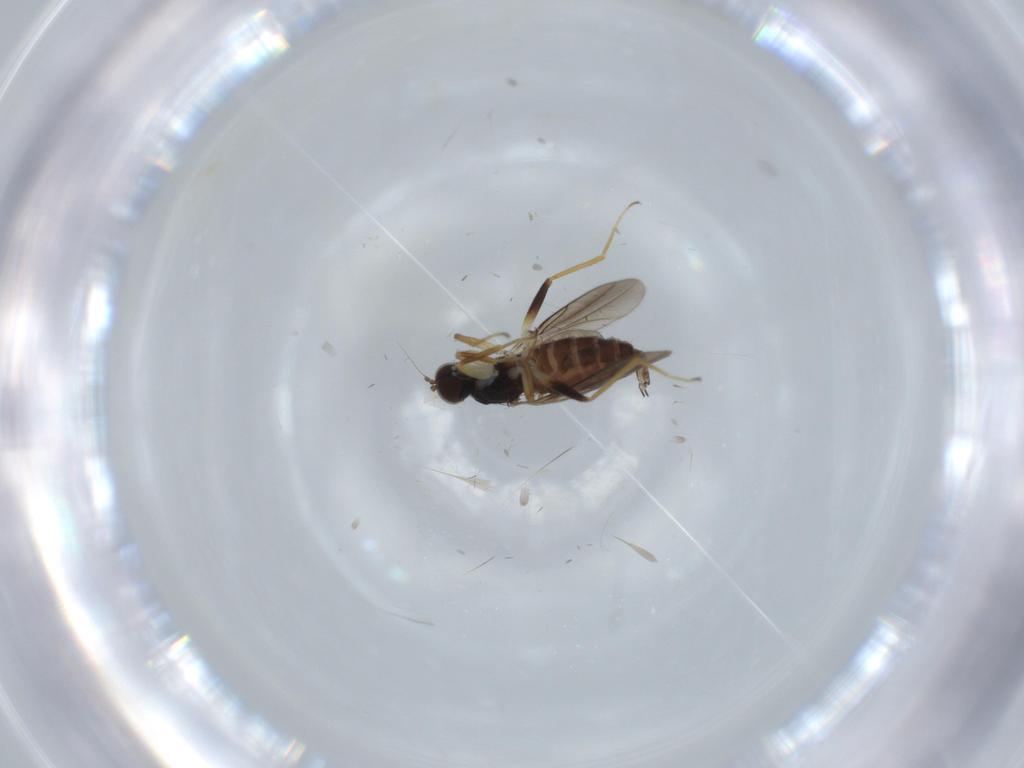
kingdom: Animalia
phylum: Arthropoda
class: Insecta
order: Diptera
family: Hybotidae
